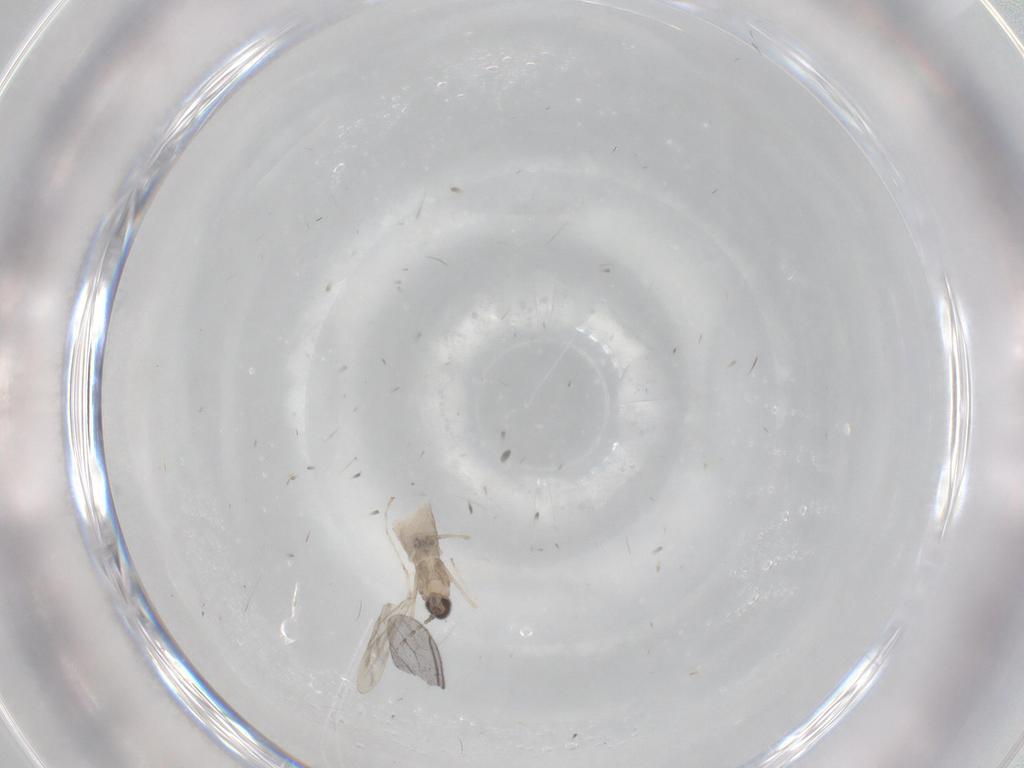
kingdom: Animalia
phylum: Arthropoda
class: Insecta
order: Diptera
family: Cecidomyiidae
